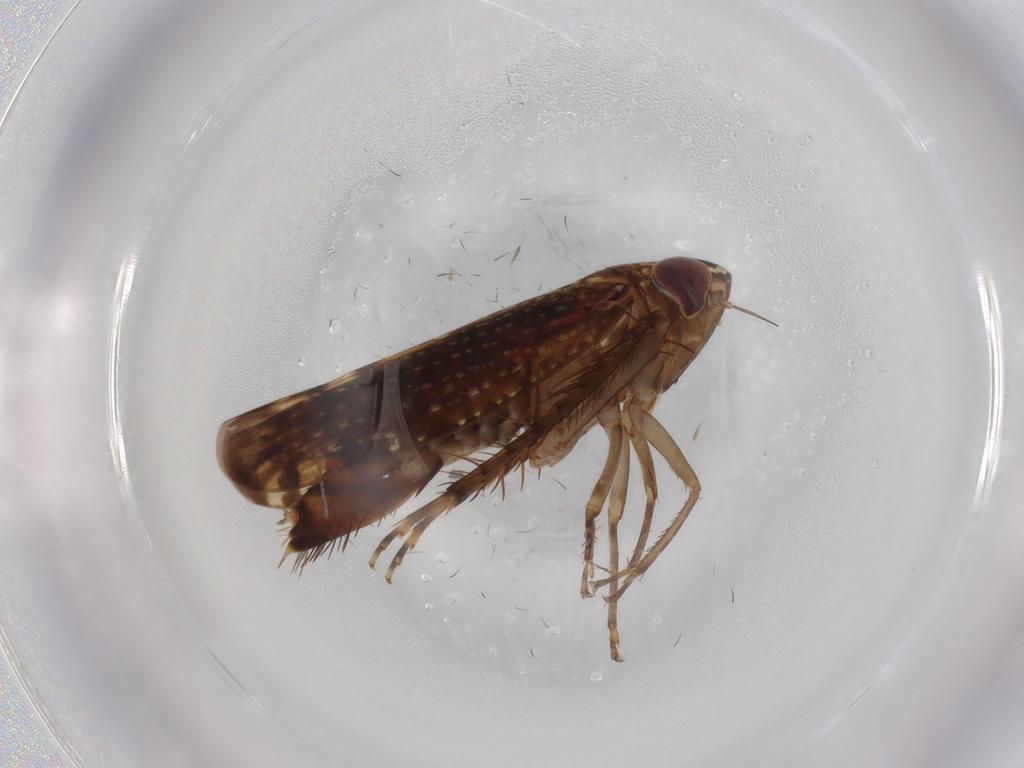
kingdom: Animalia
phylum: Arthropoda
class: Insecta
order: Hemiptera
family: Cicadellidae
